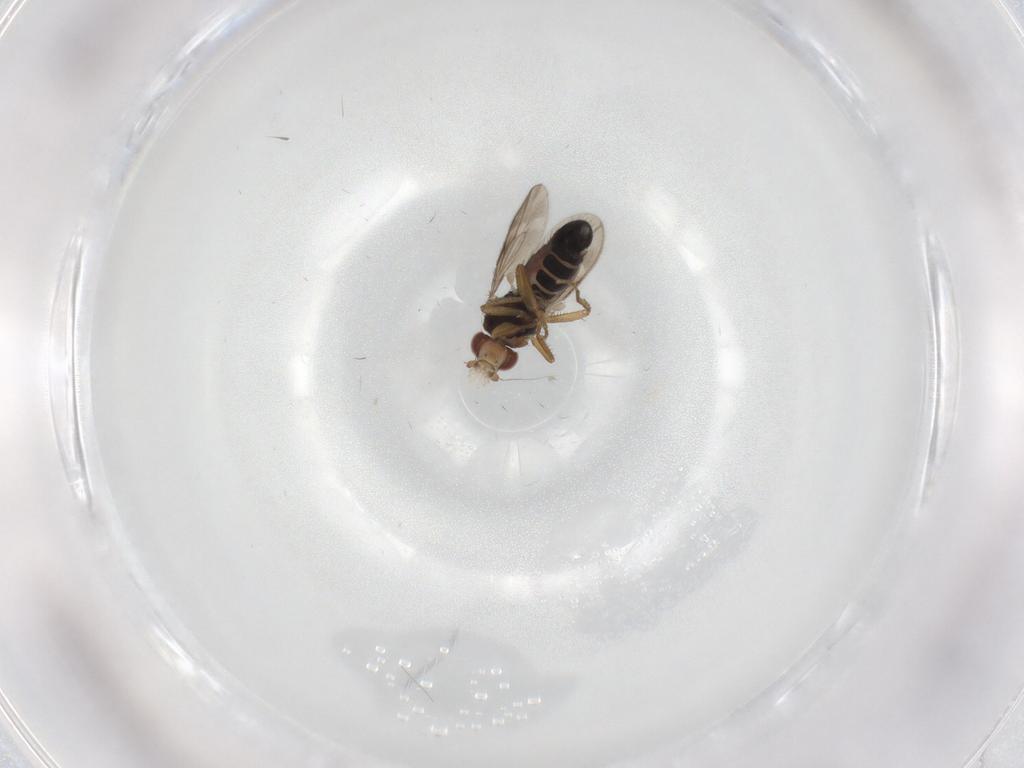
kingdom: Animalia
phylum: Arthropoda
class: Insecta
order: Diptera
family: Sphaeroceridae
